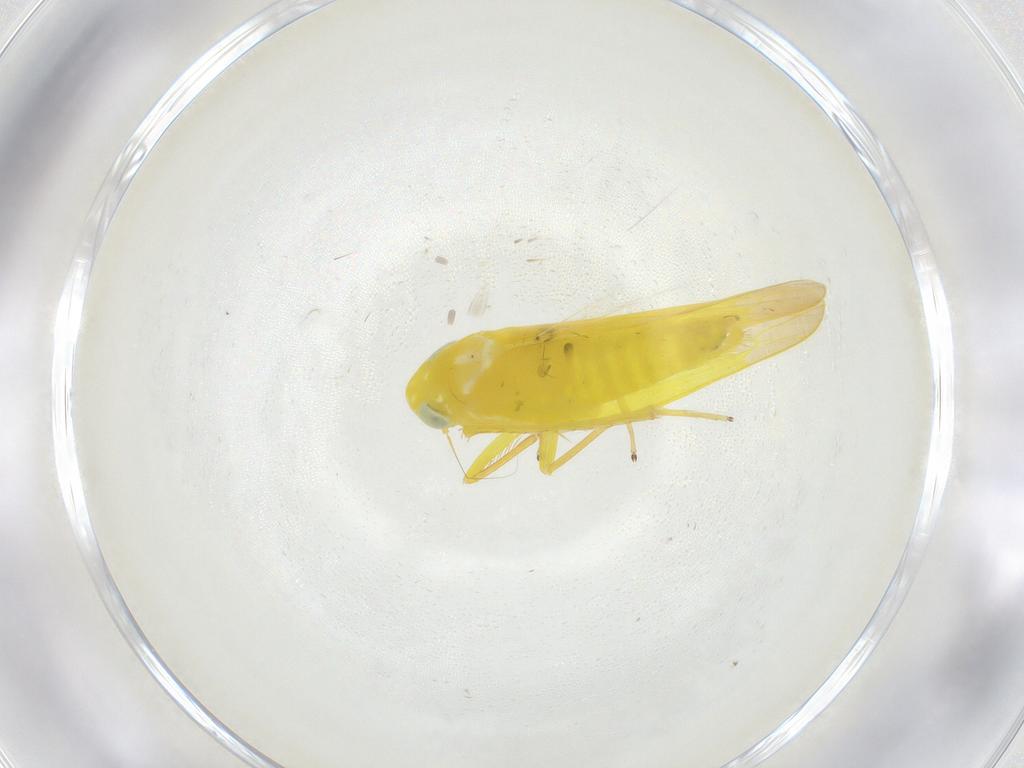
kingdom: Animalia
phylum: Arthropoda
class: Insecta
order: Hemiptera
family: Cicadellidae
